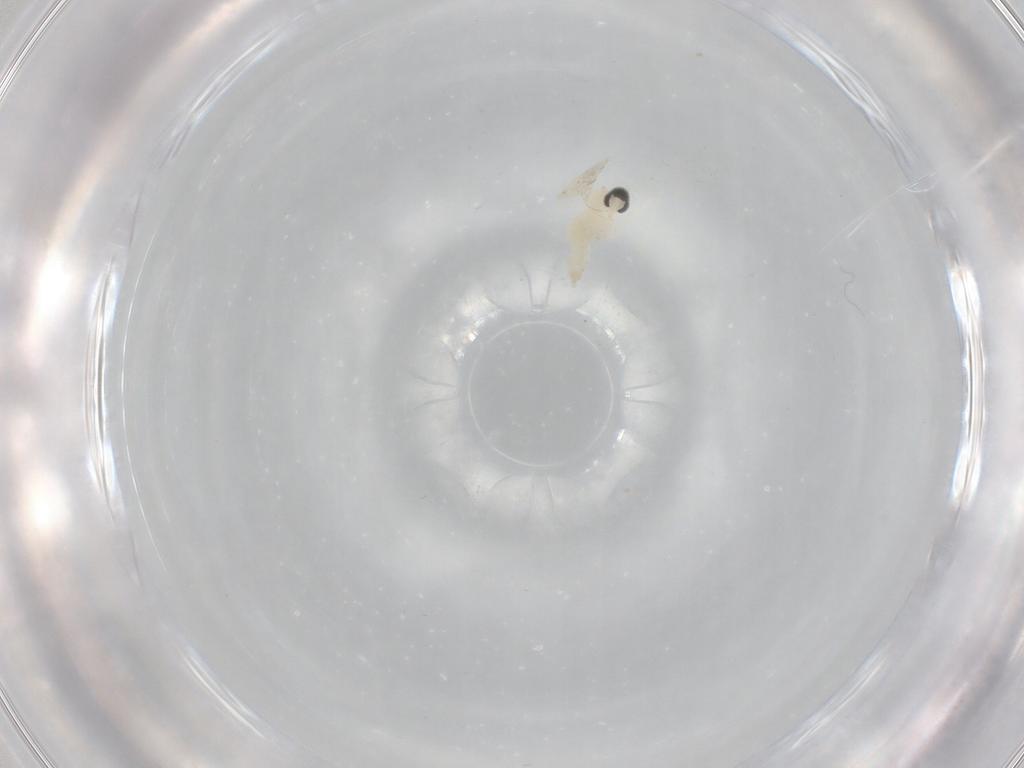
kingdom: Animalia
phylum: Arthropoda
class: Insecta
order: Diptera
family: Cecidomyiidae
